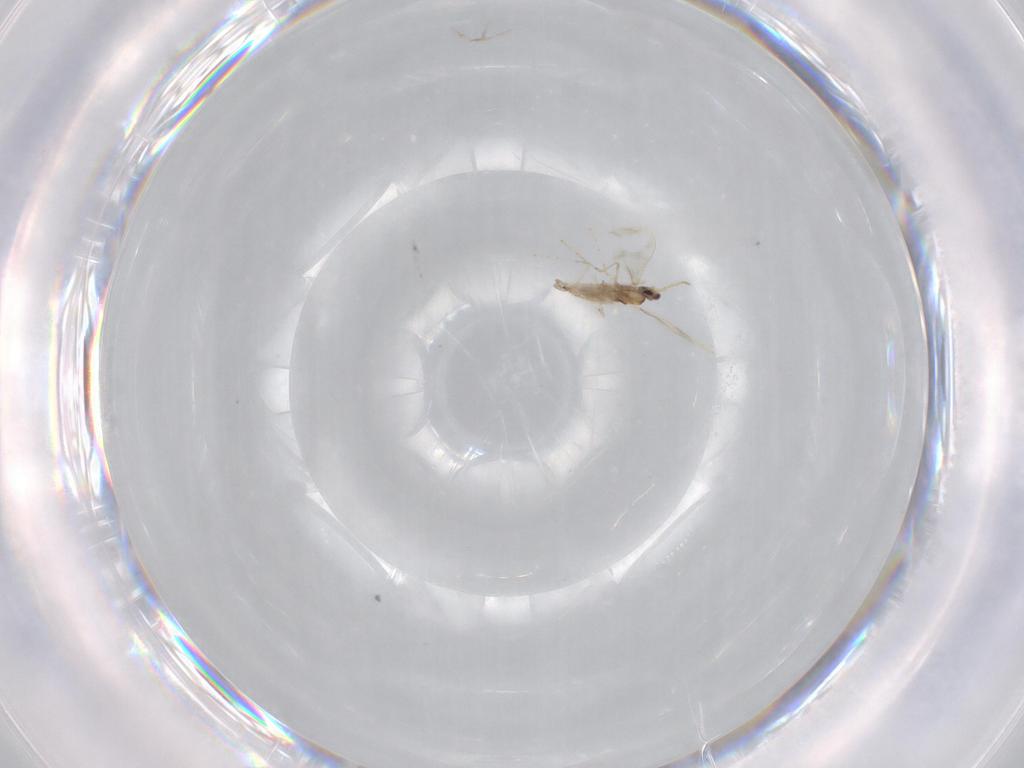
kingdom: Animalia
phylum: Arthropoda
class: Insecta
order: Diptera
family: Cecidomyiidae
